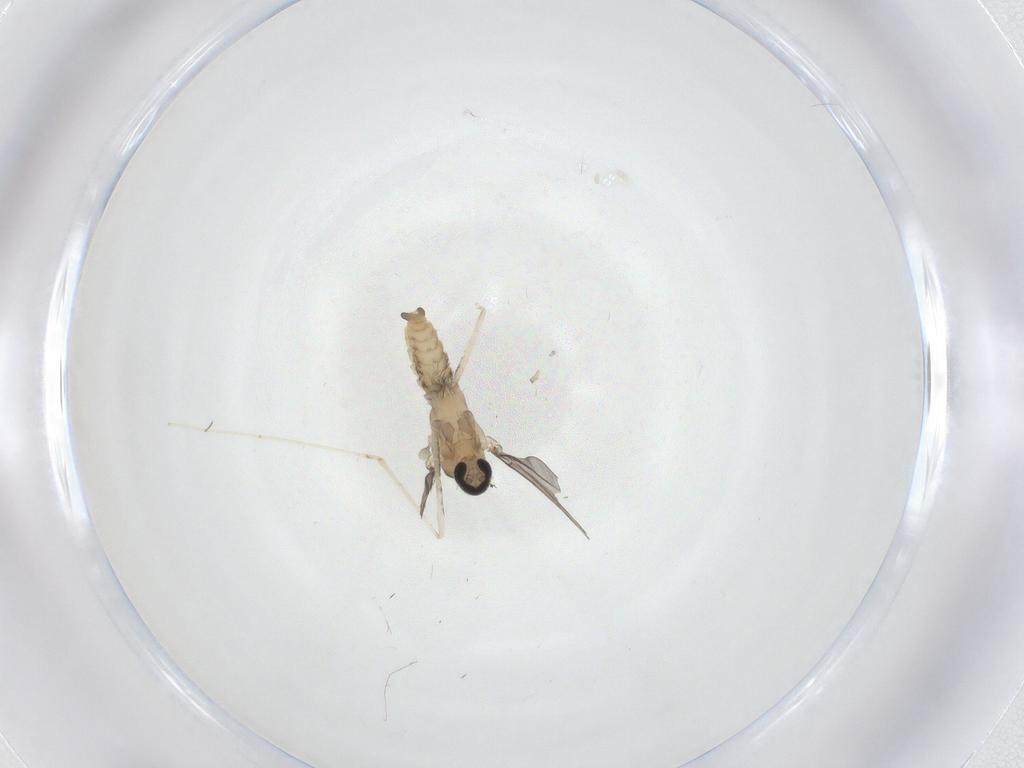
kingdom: Animalia
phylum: Arthropoda
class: Insecta
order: Diptera
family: Cecidomyiidae
